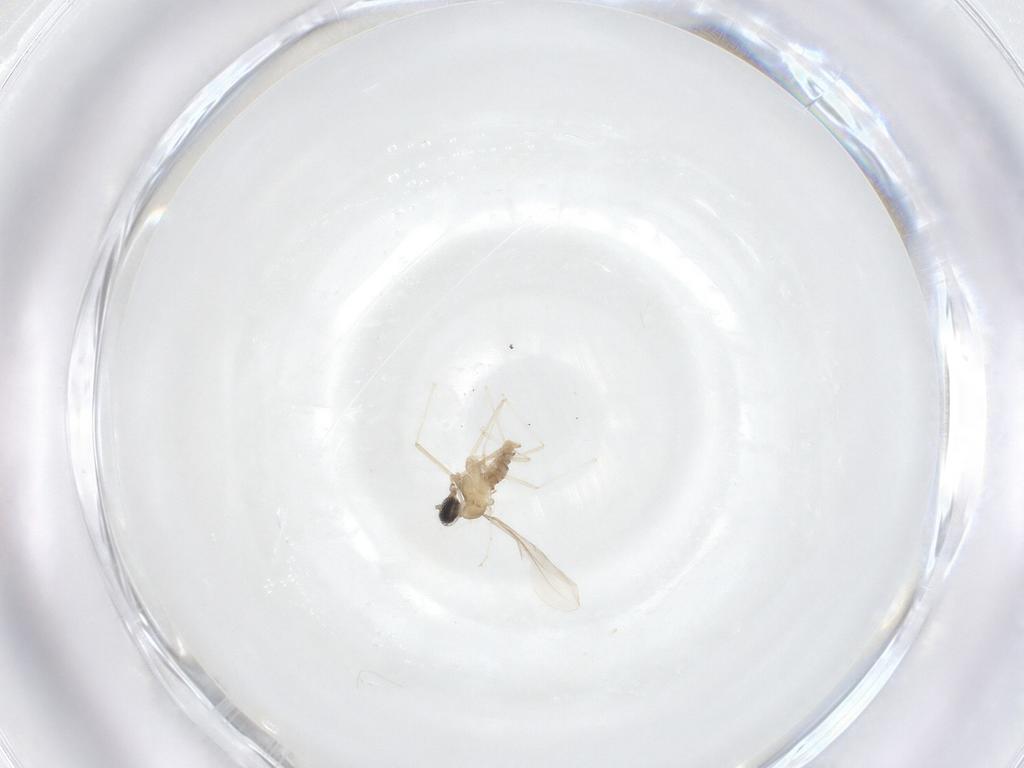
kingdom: Animalia
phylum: Arthropoda
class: Insecta
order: Diptera
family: Cecidomyiidae
